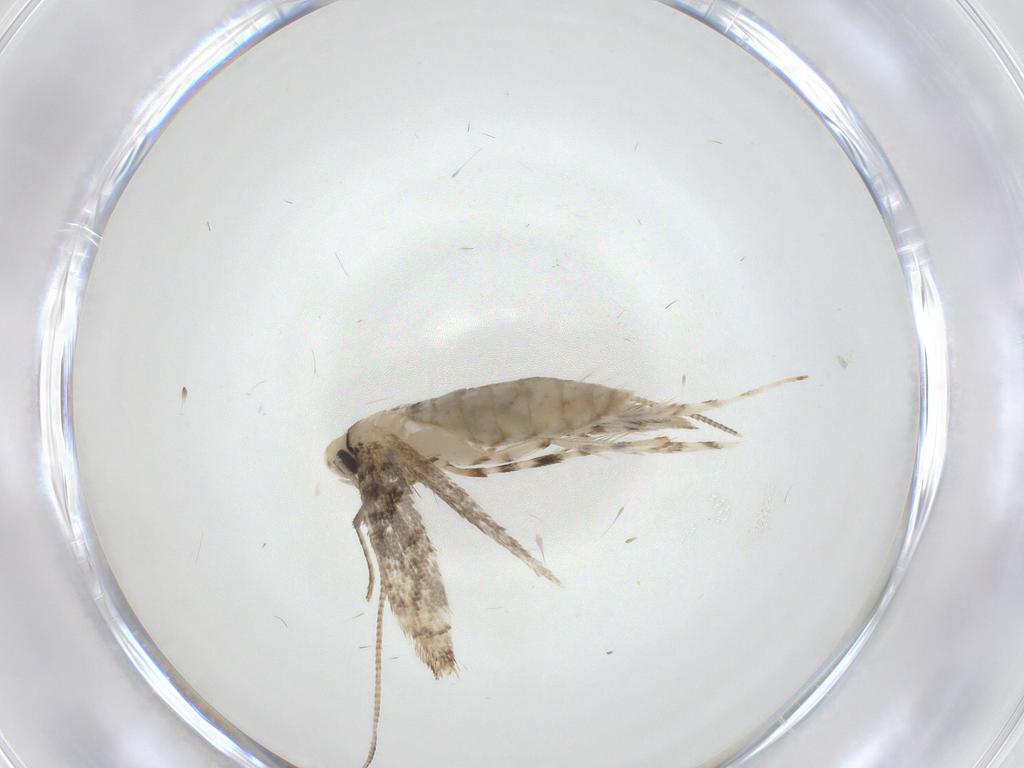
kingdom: Animalia
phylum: Arthropoda
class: Insecta
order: Lepidoptera
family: Gracillariidae
